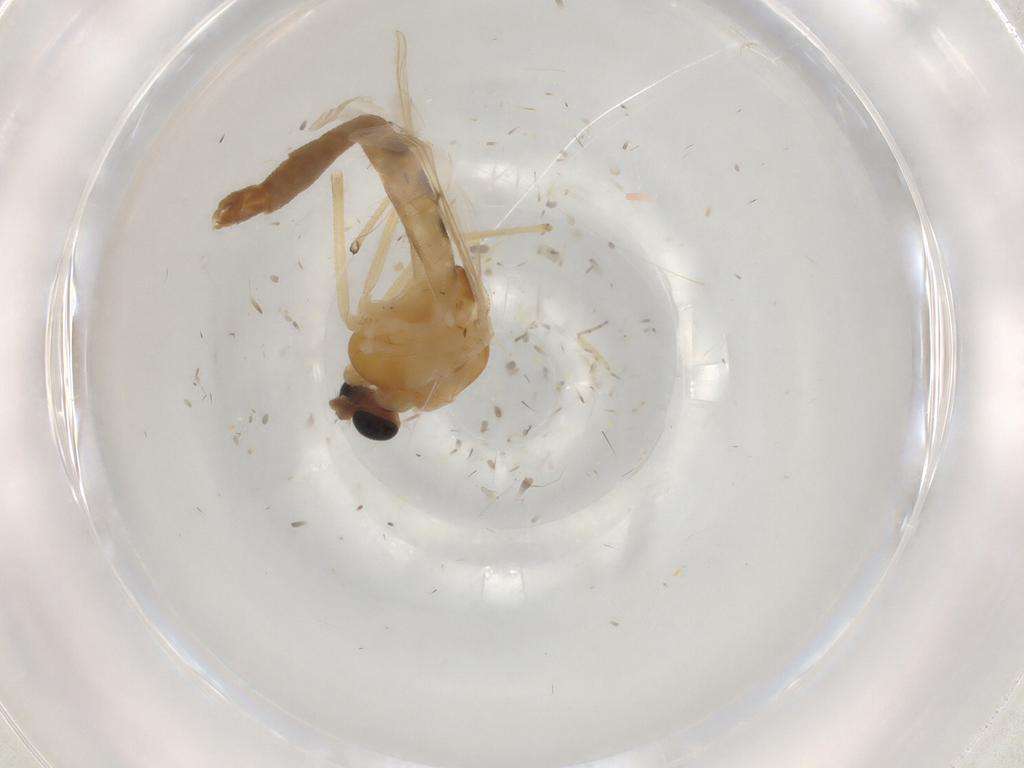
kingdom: Animalia
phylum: Arthropoda
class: Insecta
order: Diptera
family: Chironomidae
